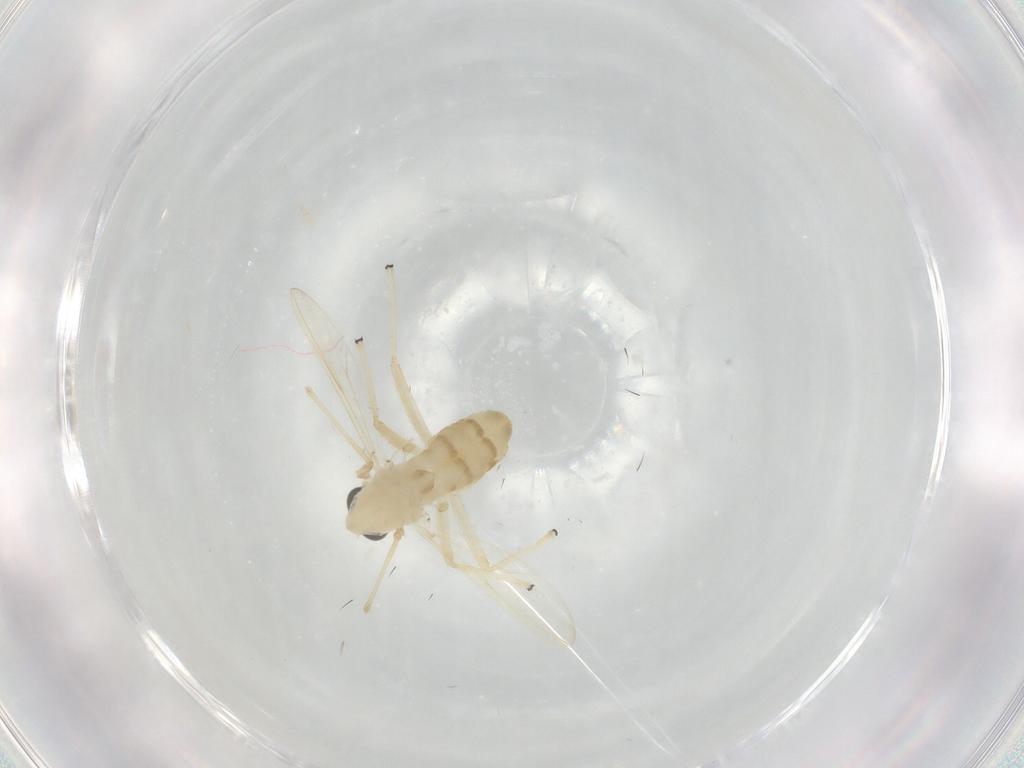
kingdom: Animalia
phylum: Arthropoda
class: Insecta
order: Diptera
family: Chironomidae
